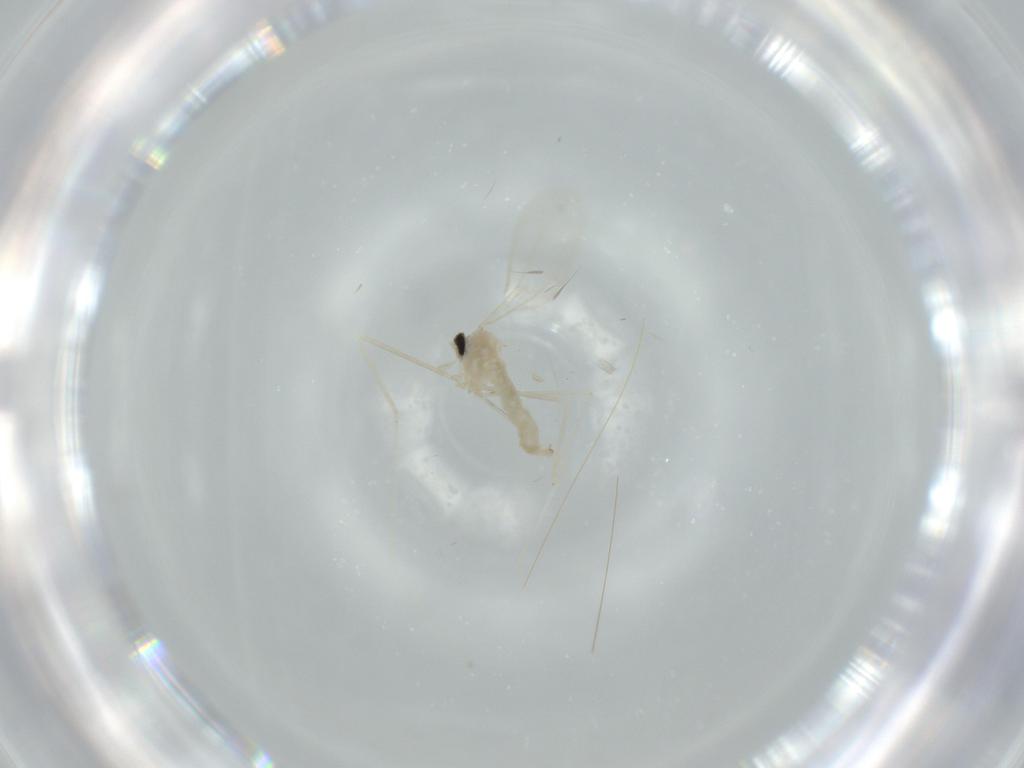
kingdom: Animalia
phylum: Arthropoda
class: Insecta
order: Diptera
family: Cecidomyiidae
